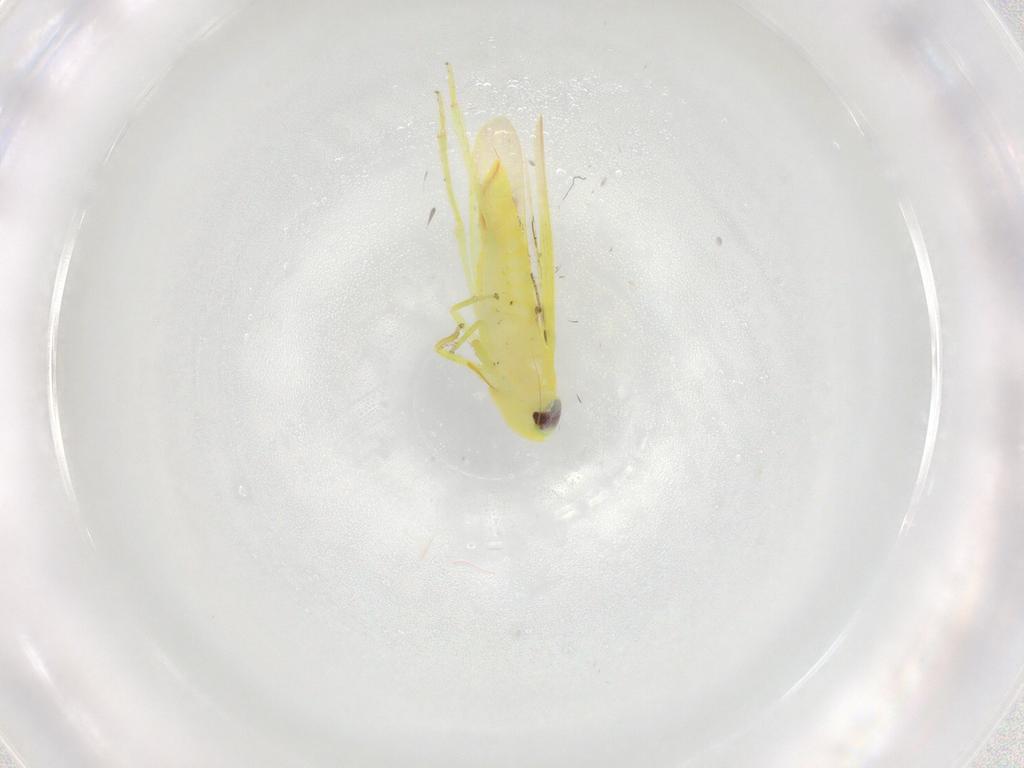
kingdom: Animalia
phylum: Arthropoda
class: Insecta
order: Hemiptera
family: Cicadellidae
